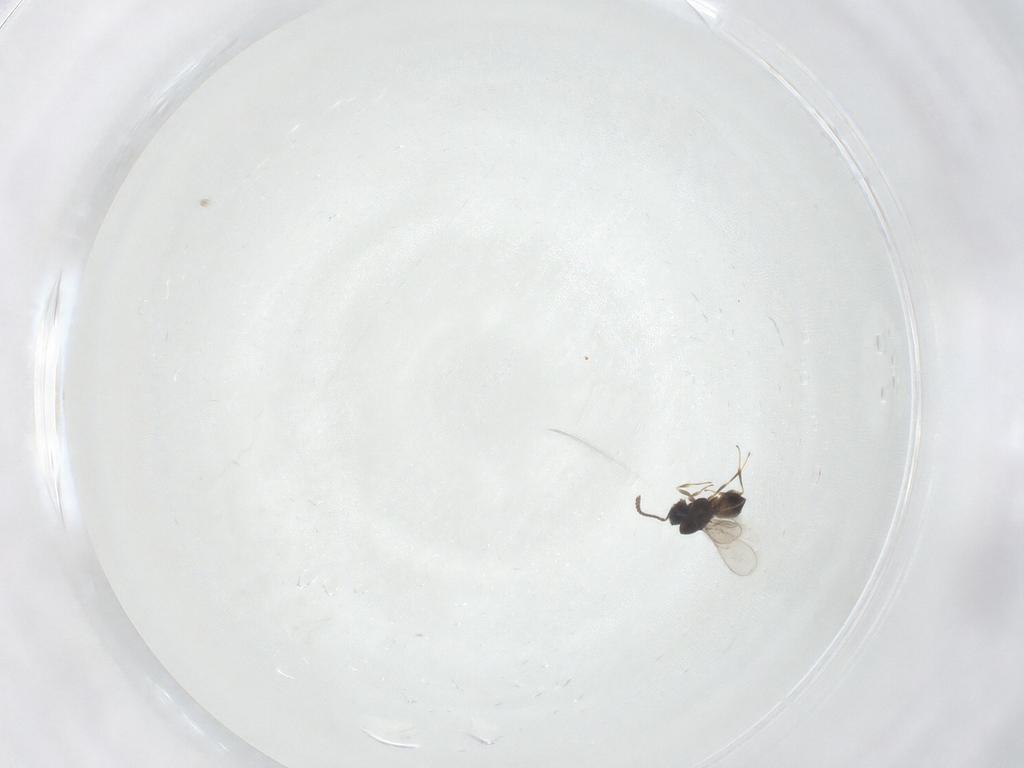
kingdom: Animalia
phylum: Arthropoda
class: Insecta
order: Hymenoptera
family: Scelionidae
